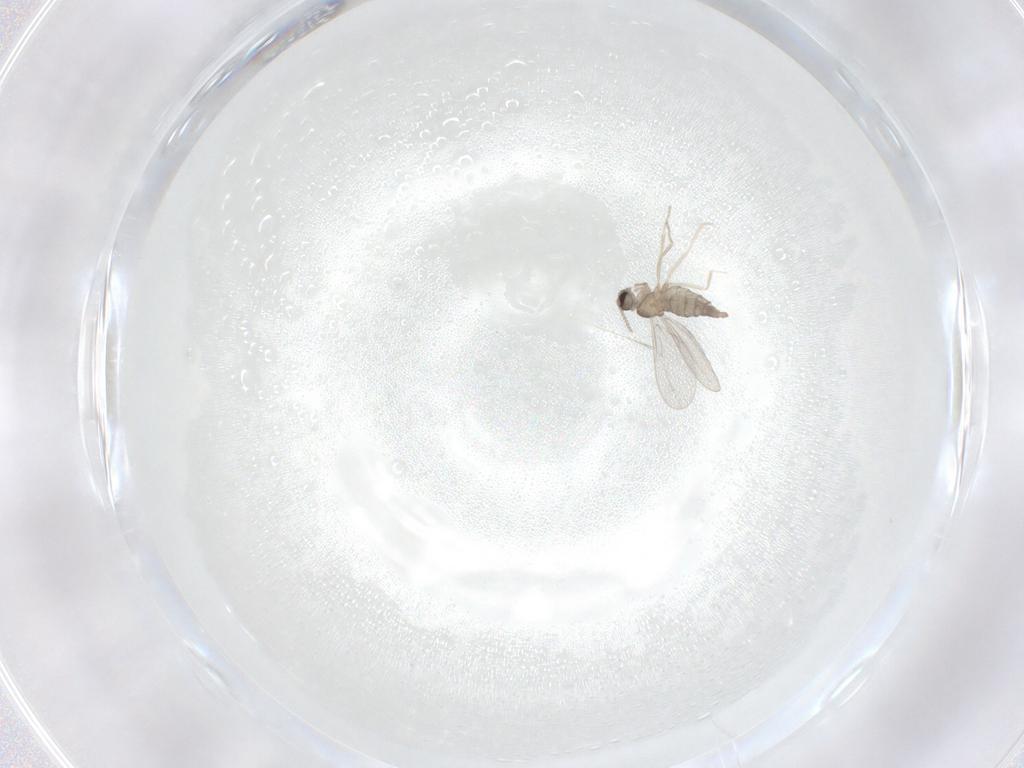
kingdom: Animalia
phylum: Arthropoda
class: Insecta
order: Diptera
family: Cecidomyiidae
